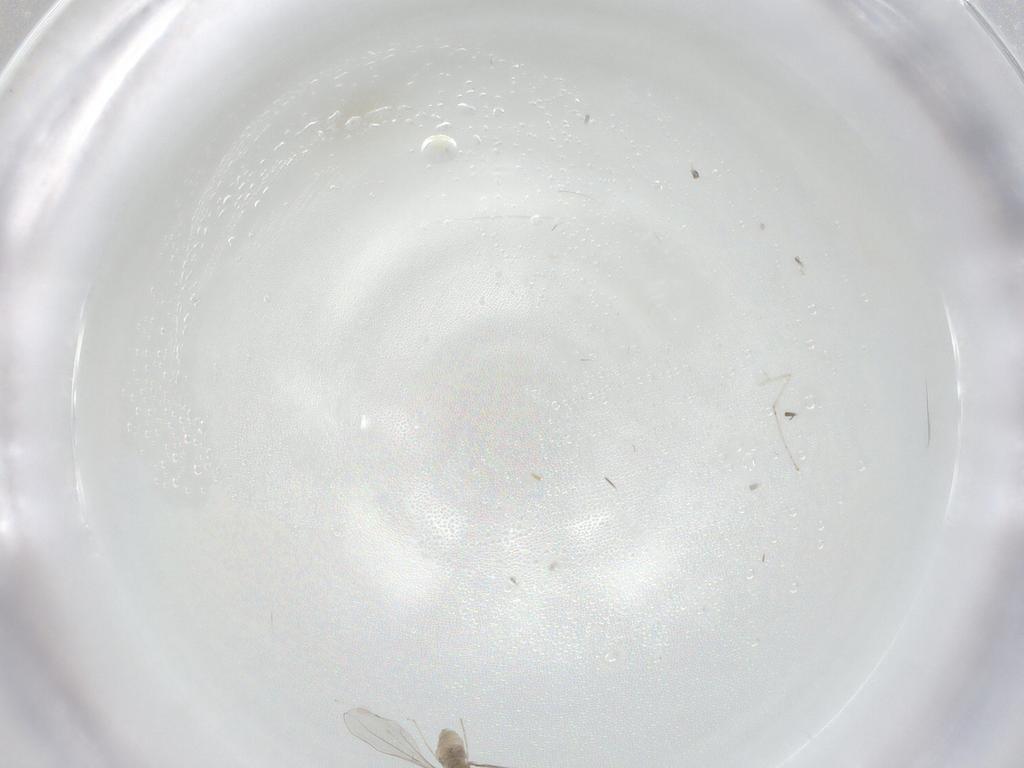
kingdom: Animalia
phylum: Arthropoda
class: Insecta
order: Diptera
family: Cecidomyiidae
